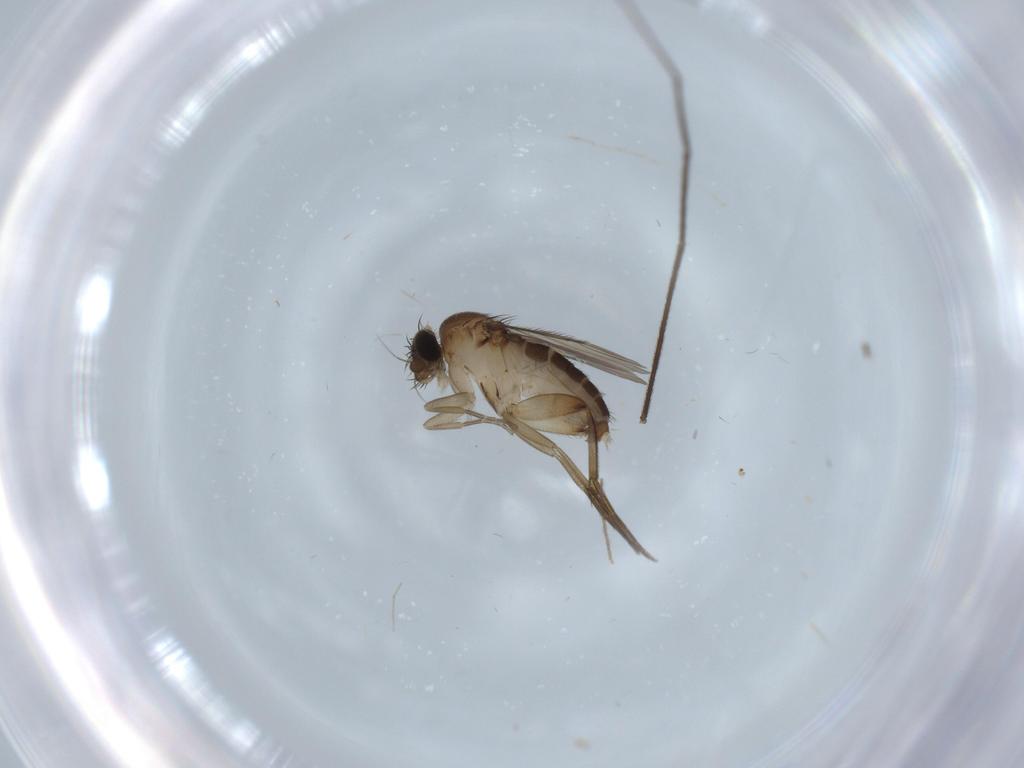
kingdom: Animalia
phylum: Arthropoda
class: Insecta
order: Diptera
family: Phoridae
